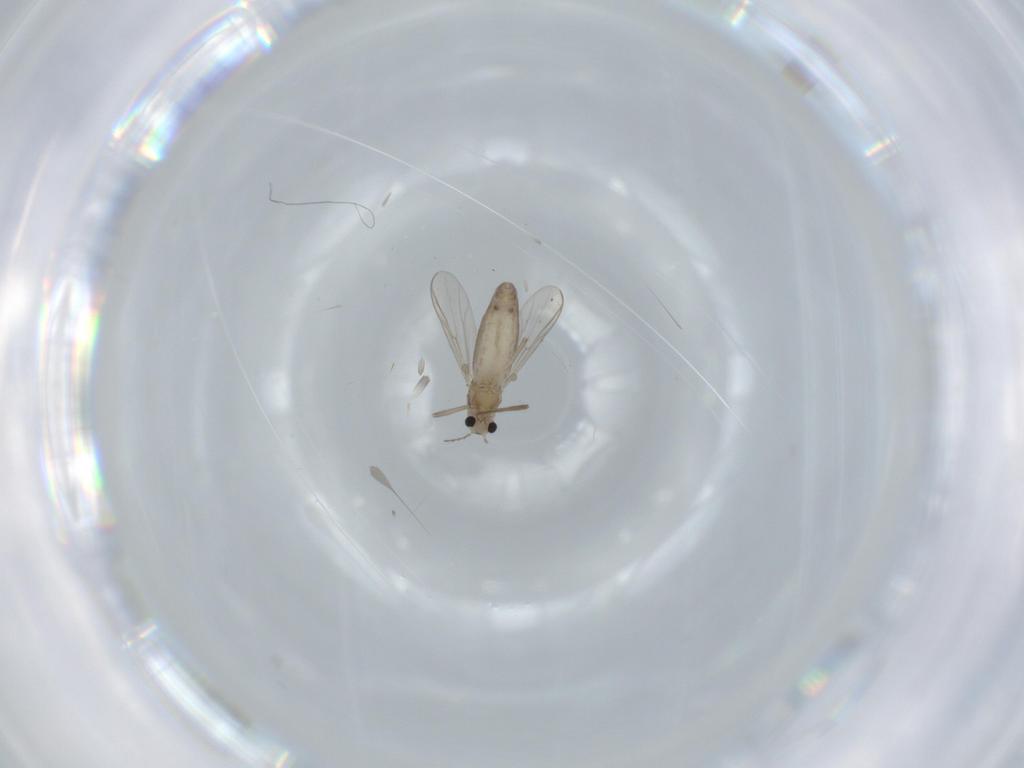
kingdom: Animalia
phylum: Arthropoda
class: Insecta
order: Diptera
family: Chironomidae
